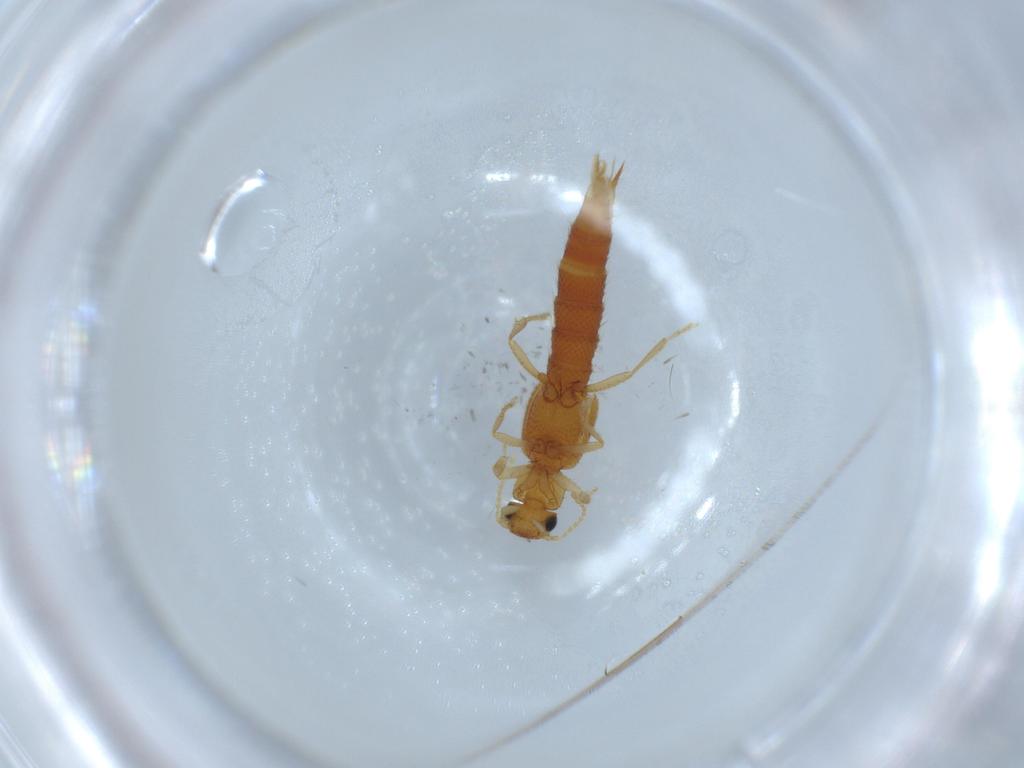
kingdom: Animalia
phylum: Arthropoda
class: Insecta
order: Coleoptera
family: Staphylinidae
